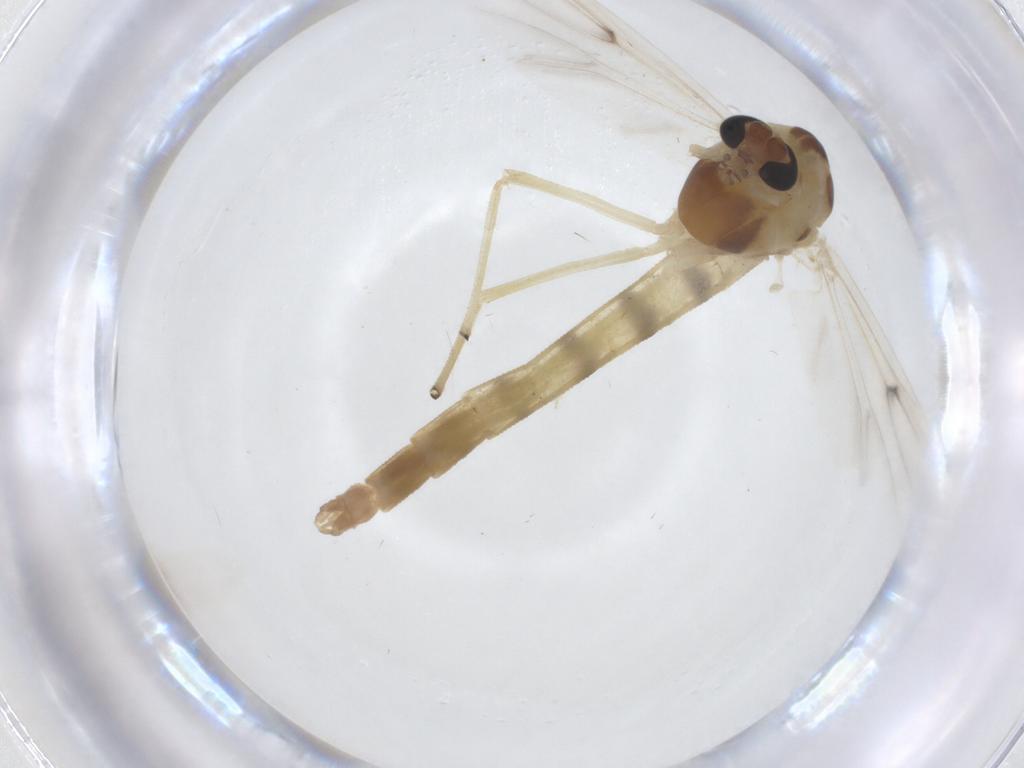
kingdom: Animalia
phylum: Arthropoda
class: Insecta
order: Diptera
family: Chironomidae
